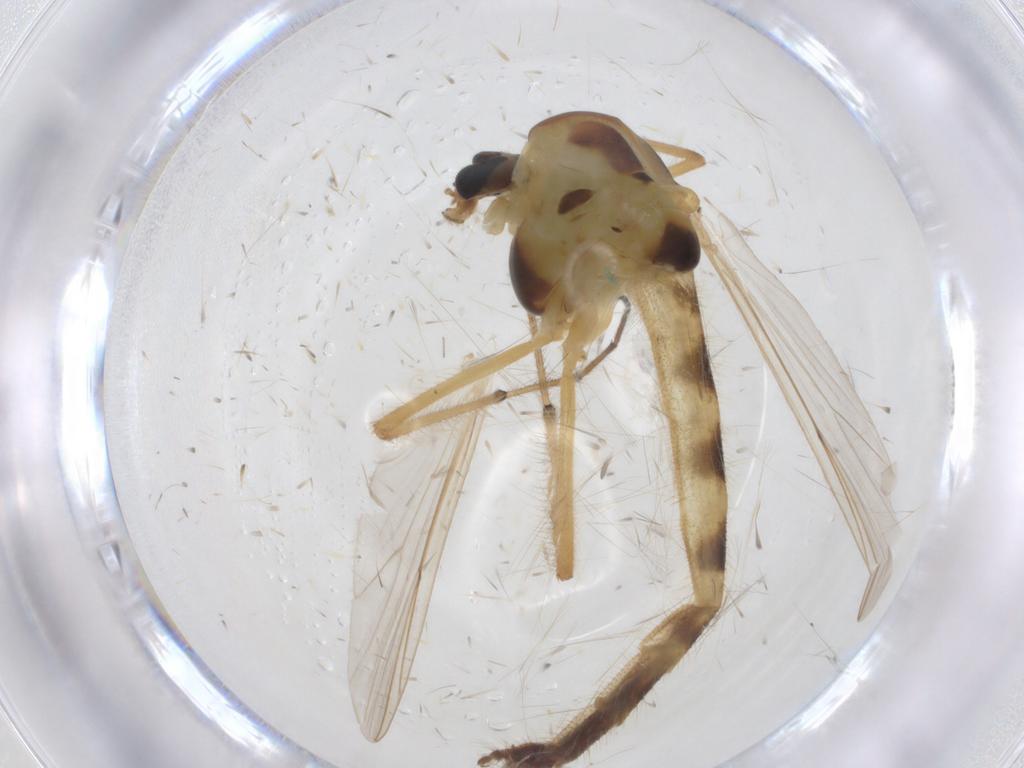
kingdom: Animalia
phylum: Arthropoda
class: Insecta
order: Diptera
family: Chironomidae
